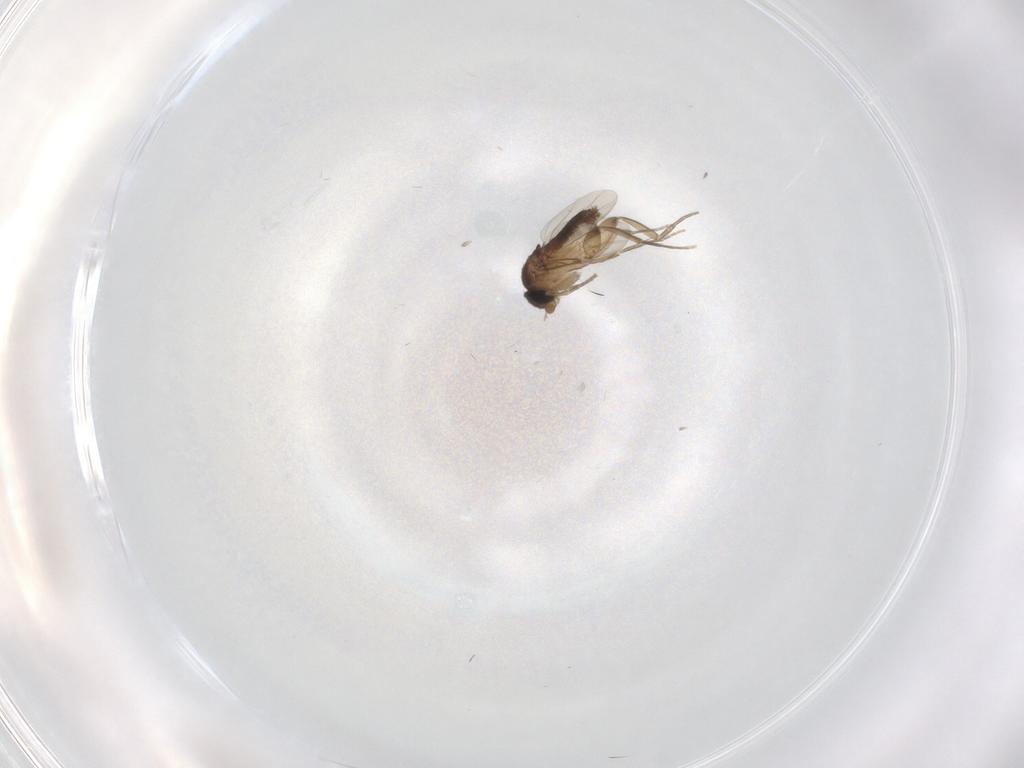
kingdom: Animalia
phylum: Arthropoda
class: Insecta
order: Diptera
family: Phoridae
